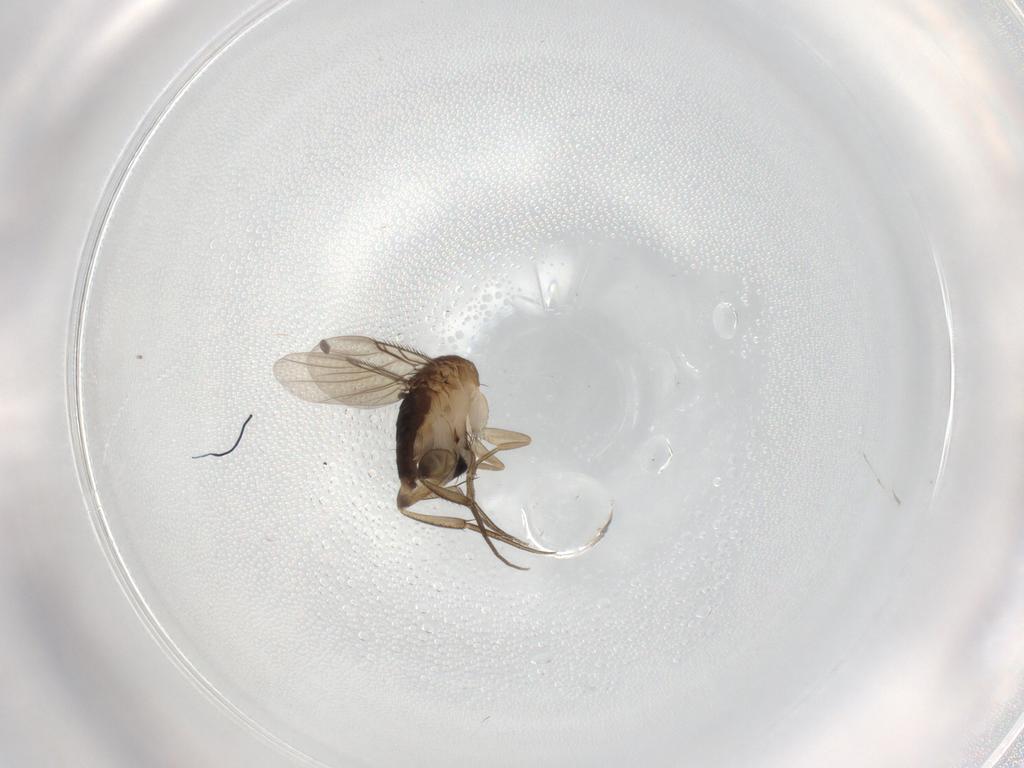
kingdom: Animalia
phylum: Arthropoda
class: Insecta
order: Diptera
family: Phoridae
